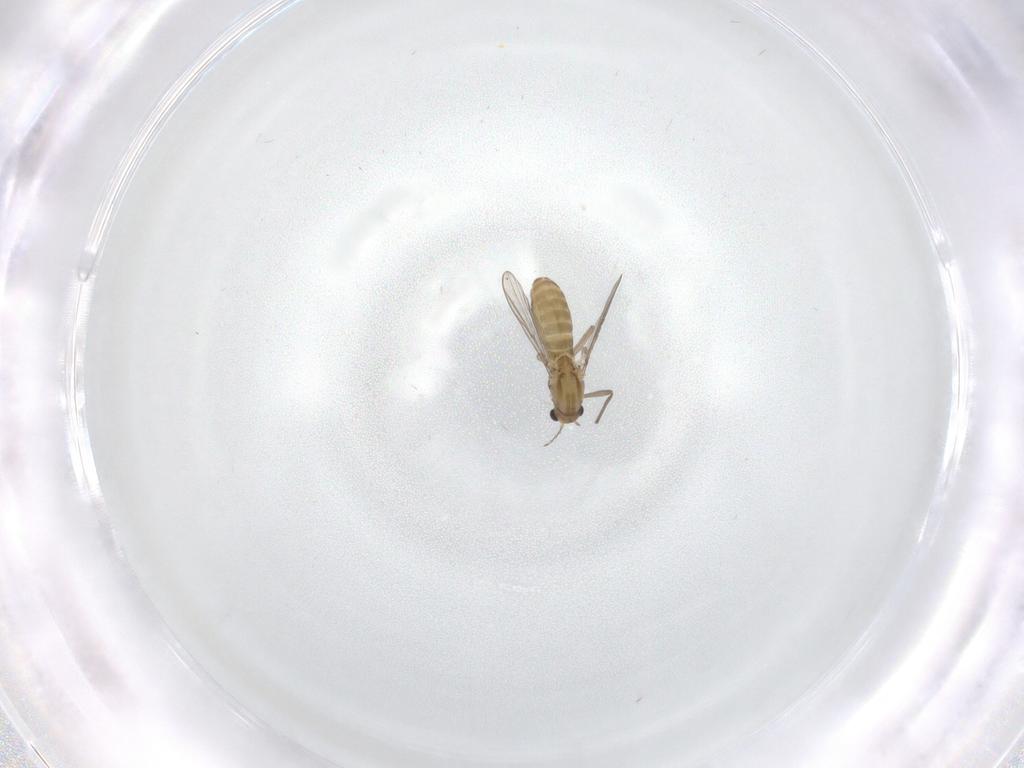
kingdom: Animalia
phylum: Arthropoda
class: Insecta
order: Diptera
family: Chironomidae
